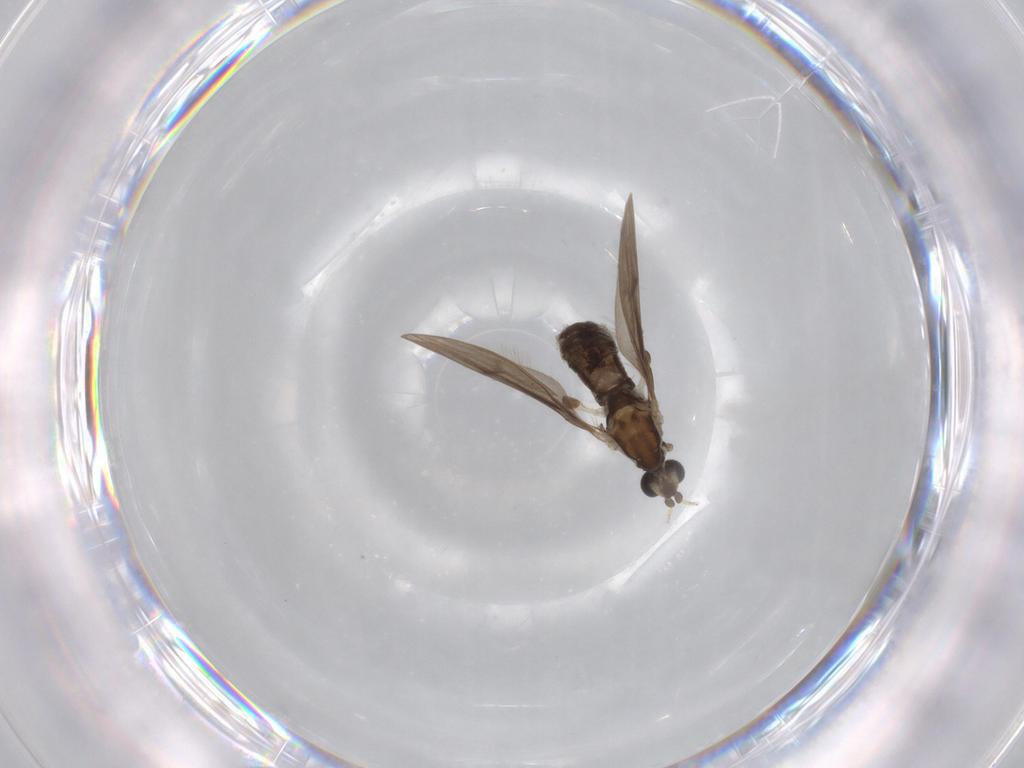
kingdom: Animalia
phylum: Arthropoda
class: Insecta
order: Diptera
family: Limoniidae
